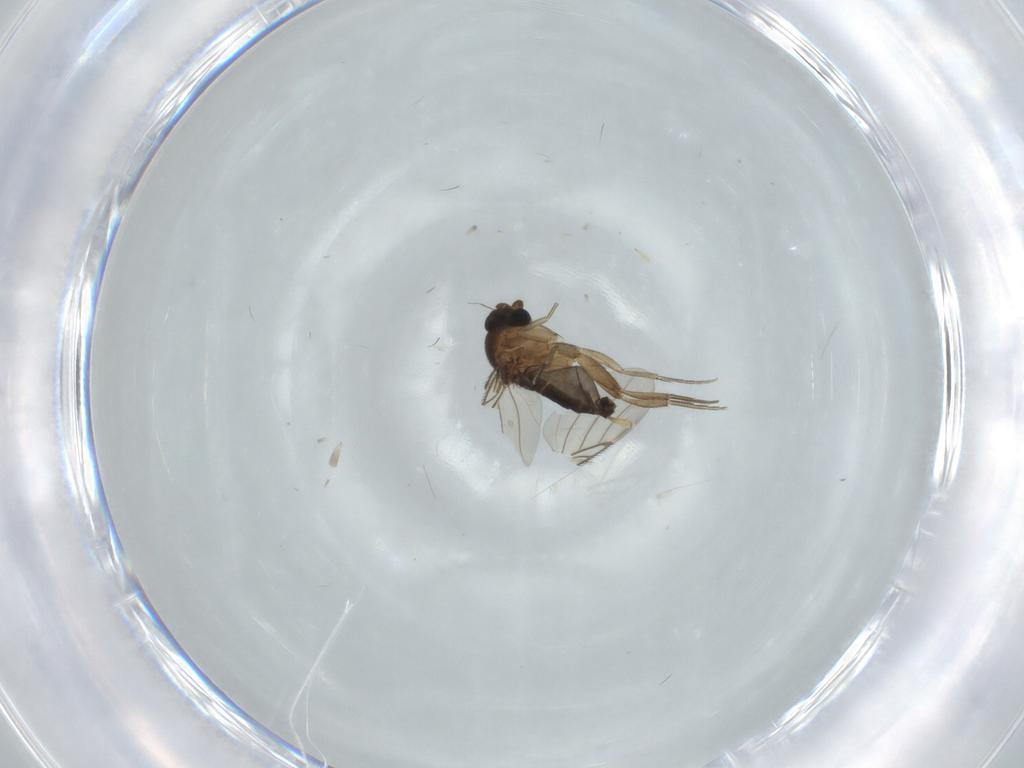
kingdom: Animalia
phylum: Arthropoda
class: Insecta
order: Diptera
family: Phoridae
